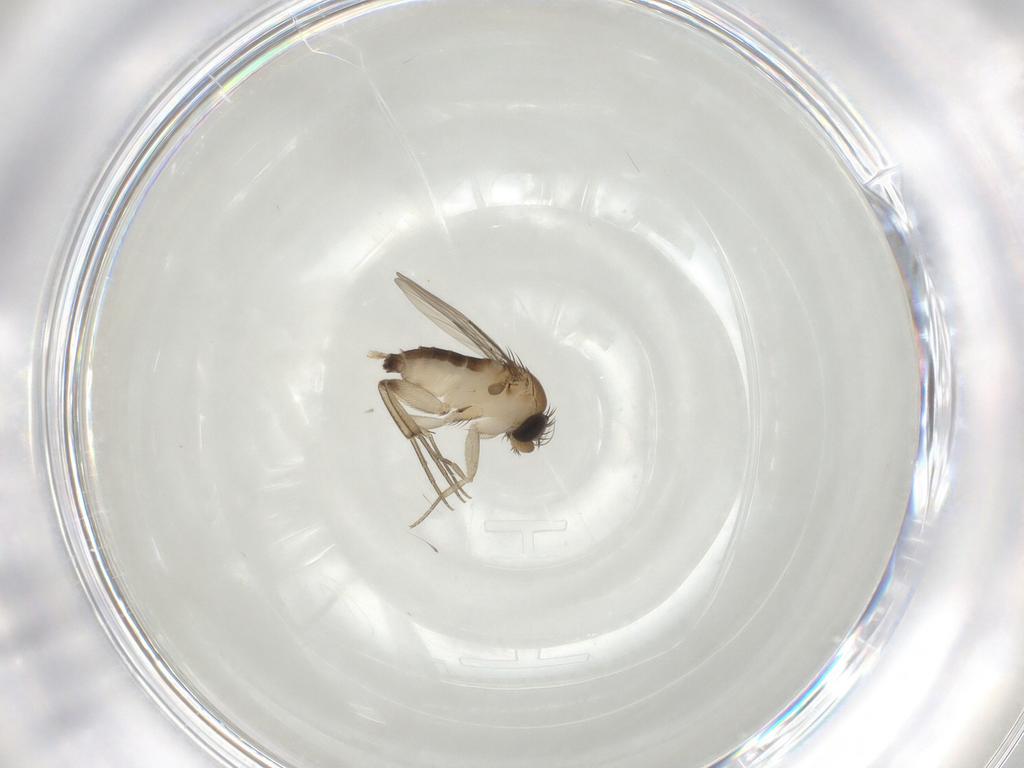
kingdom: Animalia
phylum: Arthropoda
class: Insecta
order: Diptera
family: Phoridae
